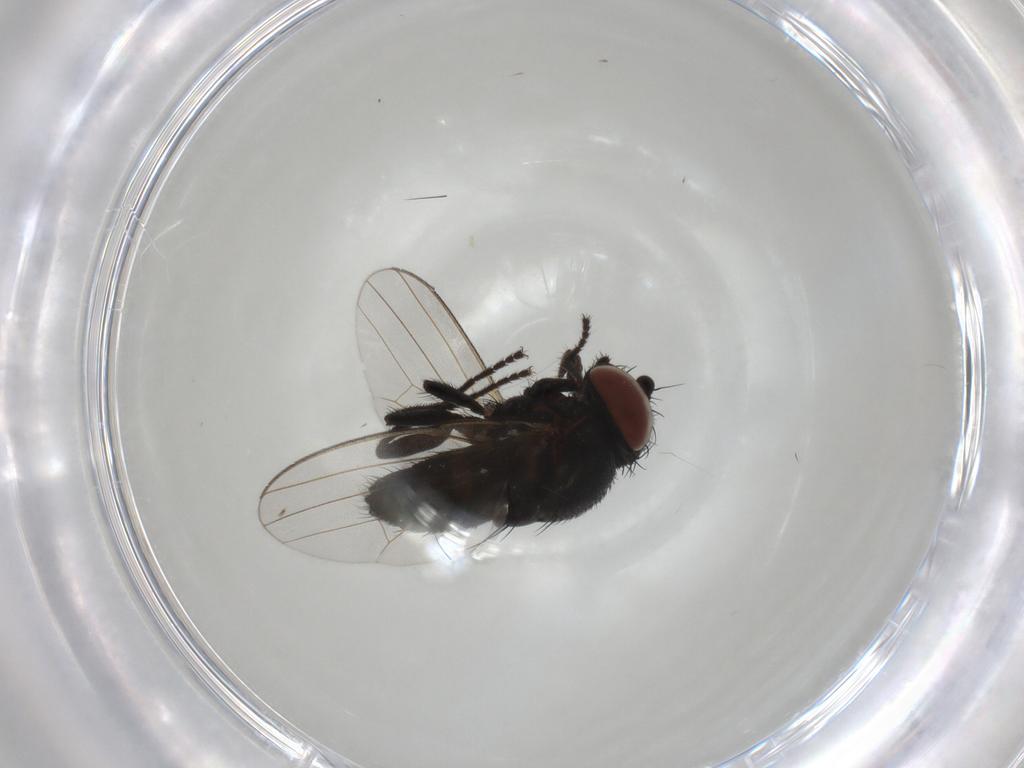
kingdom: Animalia
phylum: Arthropoda
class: Insecta
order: Diptera
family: Milichiidae
